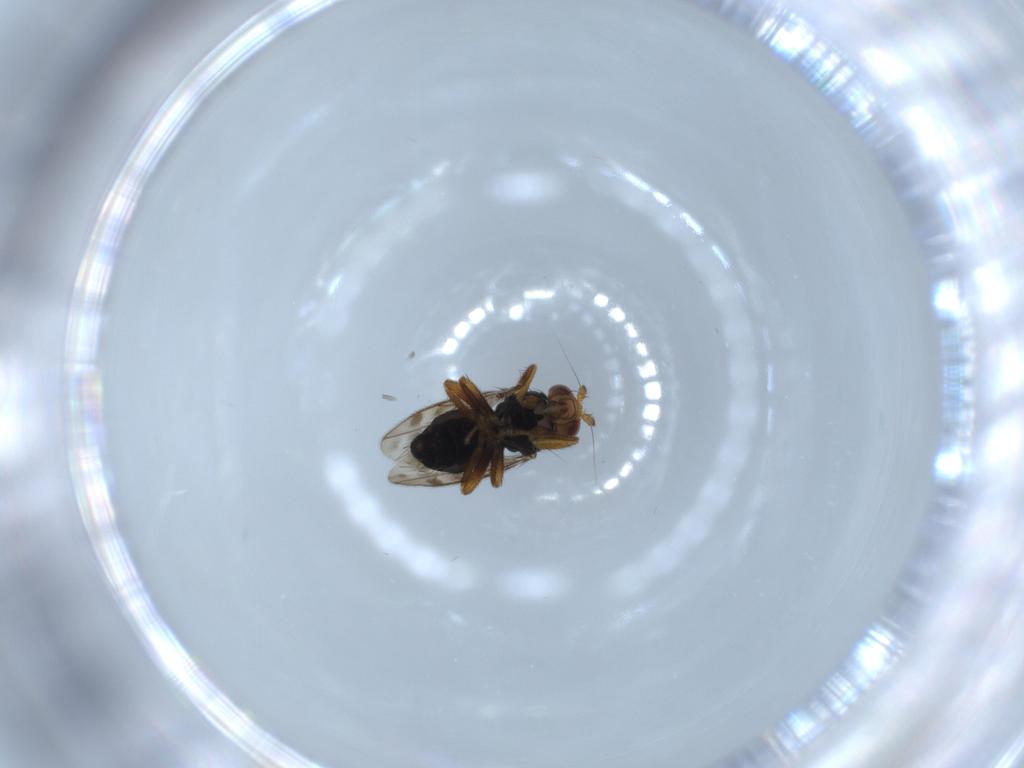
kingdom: Animalia
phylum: Arthropoda
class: Insecta
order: Diptera
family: Sphaeroceridae
